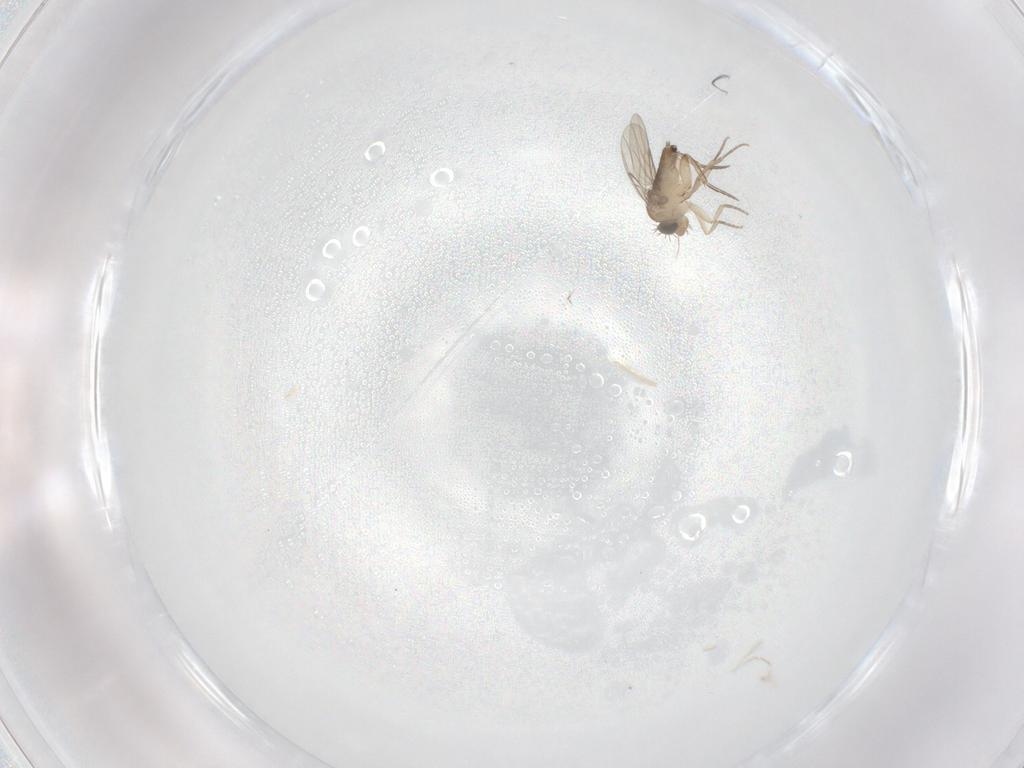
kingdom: Animalia
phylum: Arthropoda
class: Insecta
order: Diptera
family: Phoridae
